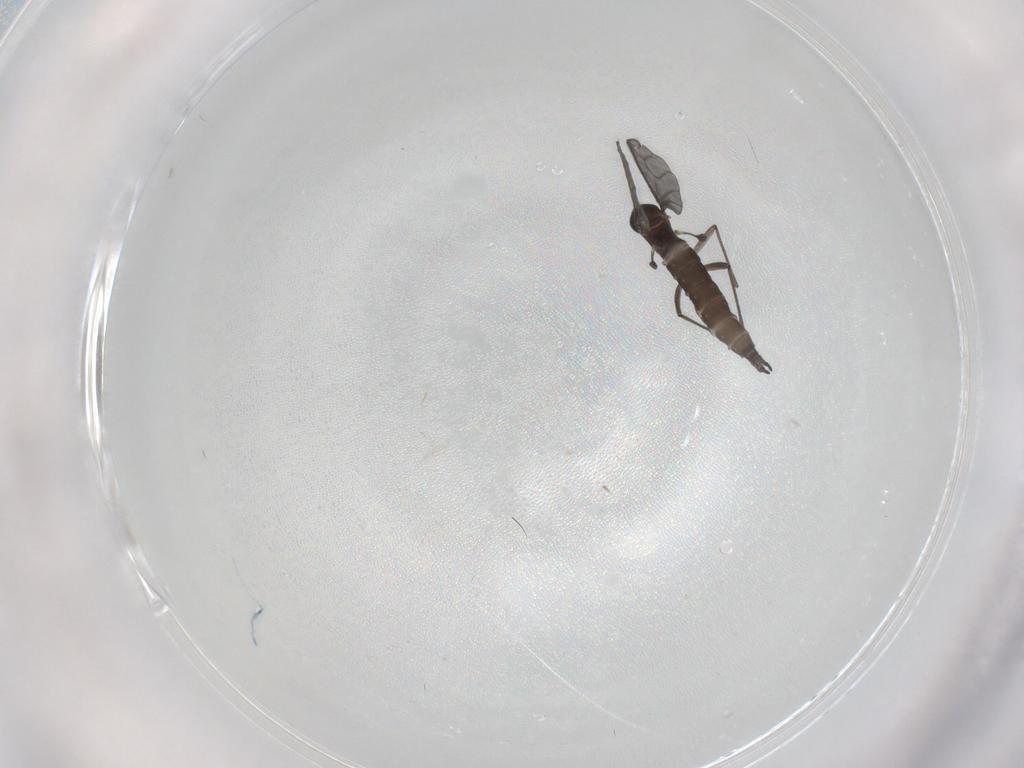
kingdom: Animalia
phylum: Arthropoda
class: Insecta
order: Diptera
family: Sciaridae
